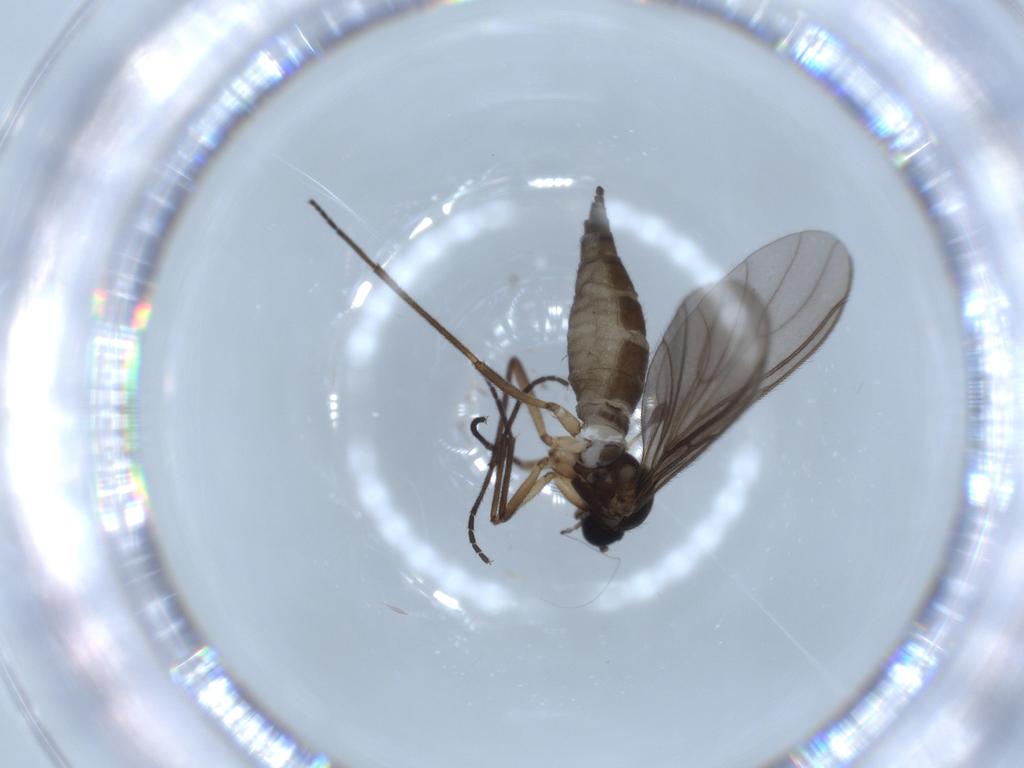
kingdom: Animalia
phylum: Arthropoda
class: Insecta
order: Diptera
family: Sciaridae
